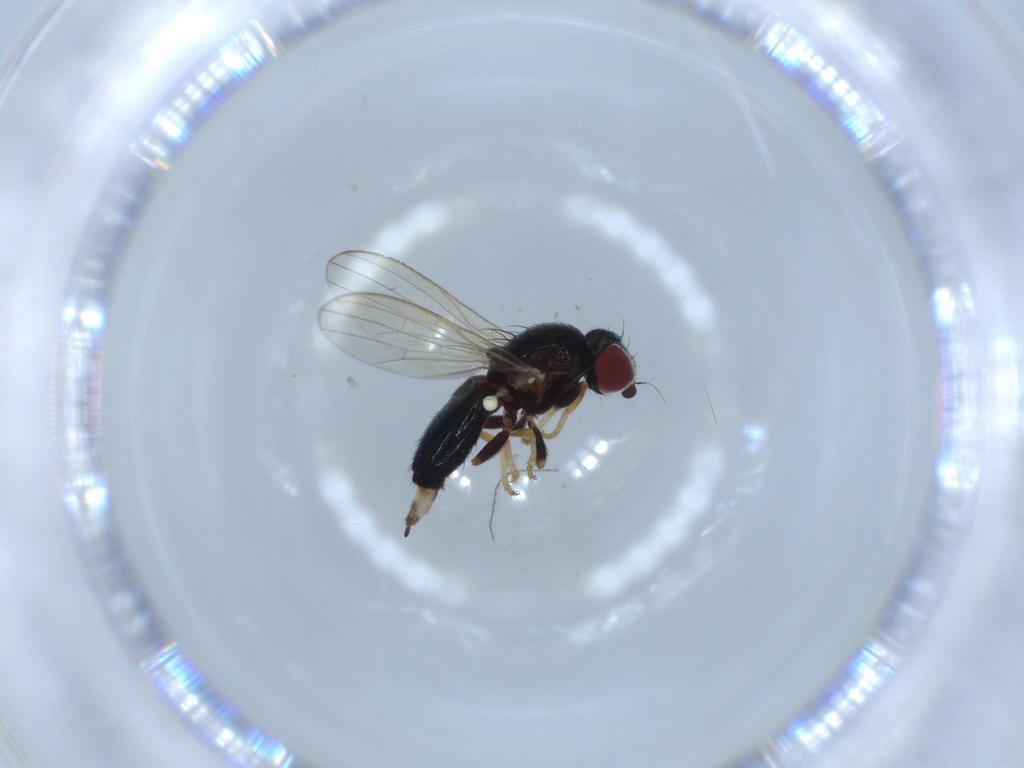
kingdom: Animalia
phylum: Arthropoda
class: Insecta
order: Diptera
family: Chamaemyiidae
